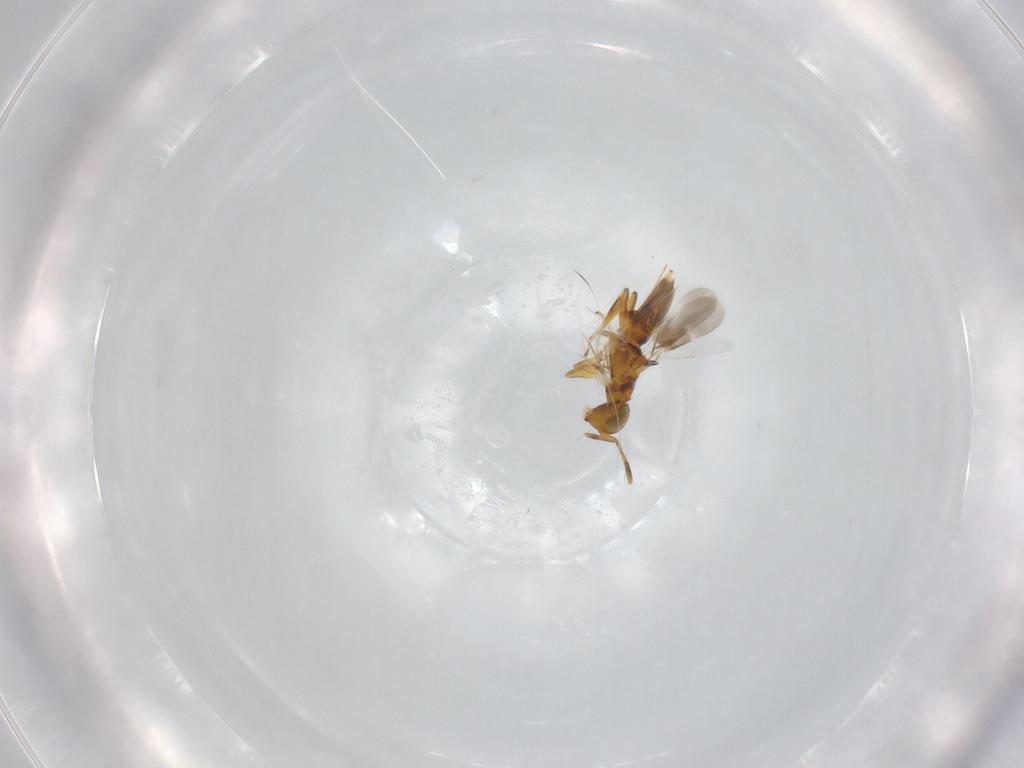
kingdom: Animalia
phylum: Arthropoda
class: Insecta
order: Hymenoptera
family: Encyrtidae
